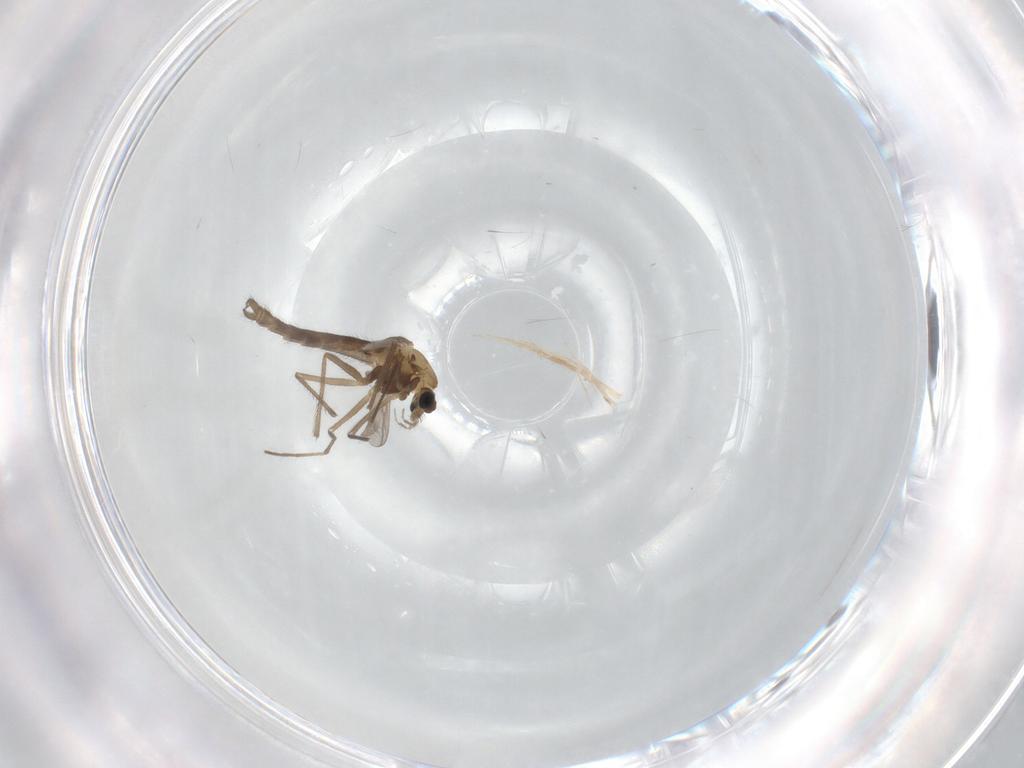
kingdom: Animalia
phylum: Arthropoda
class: Insecta
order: Diptera
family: Chironomidae
